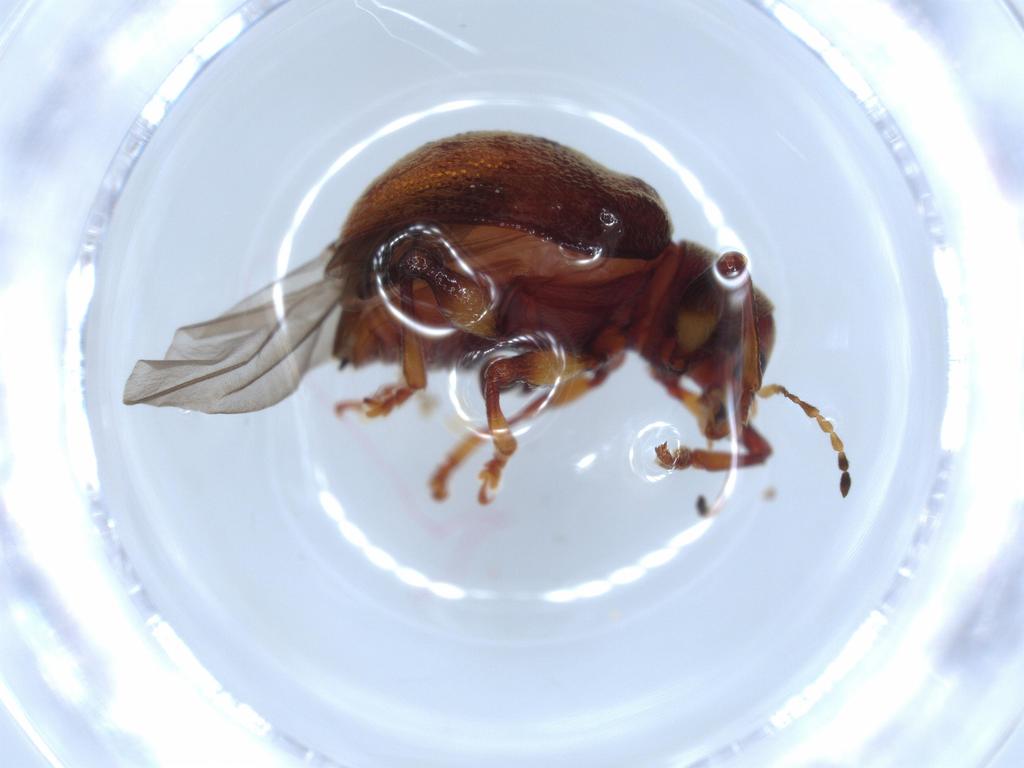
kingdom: Animalia
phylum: Arthropoda
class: Insecta
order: Coleoptera
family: Chrysomelidae
